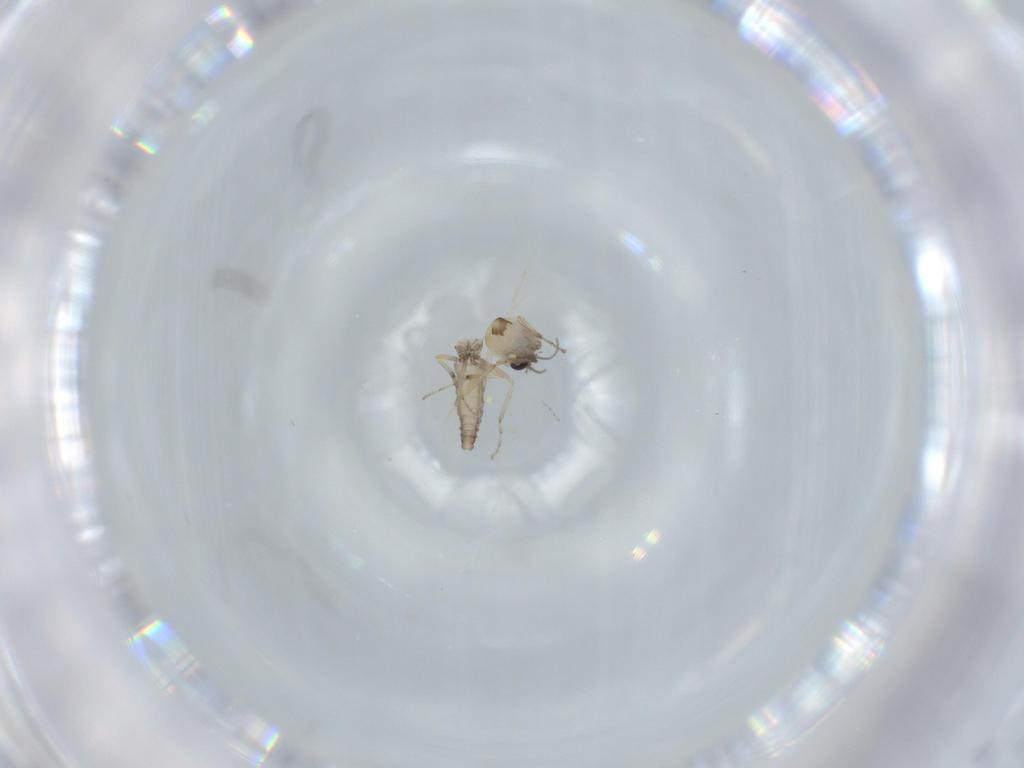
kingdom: Animalia
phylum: Arthropoda
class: Insecta
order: Diptera
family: Ceratopogonidae
